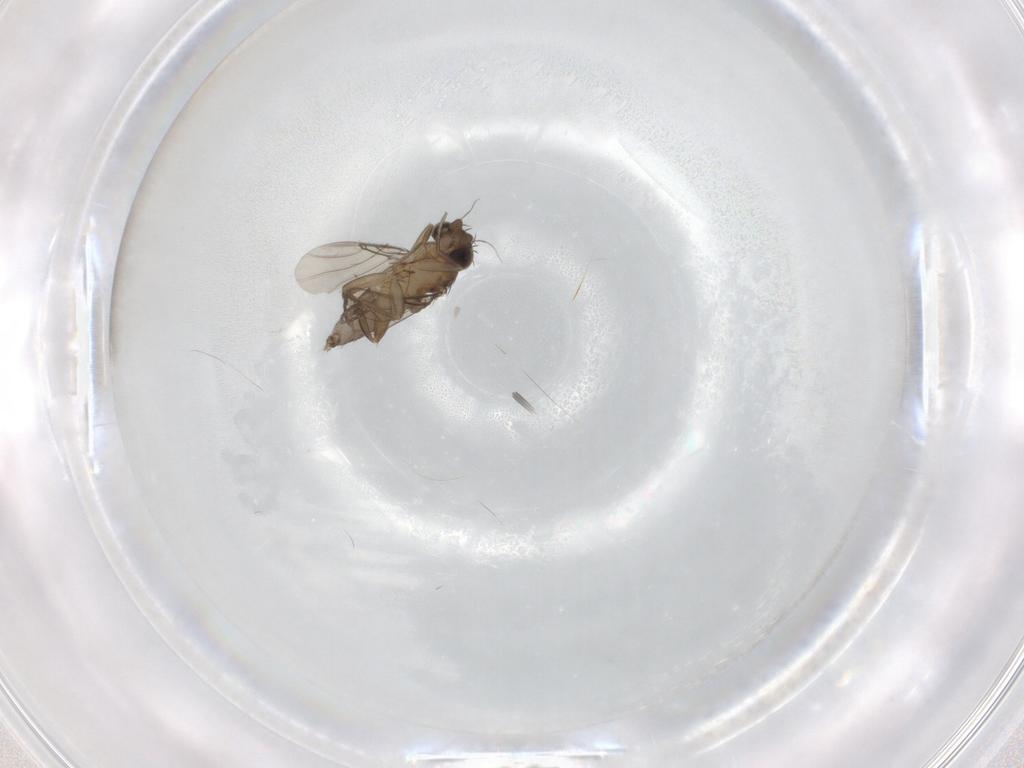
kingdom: Animalia
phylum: Arthropoda
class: Insecta
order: Diptera
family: Phoridae
